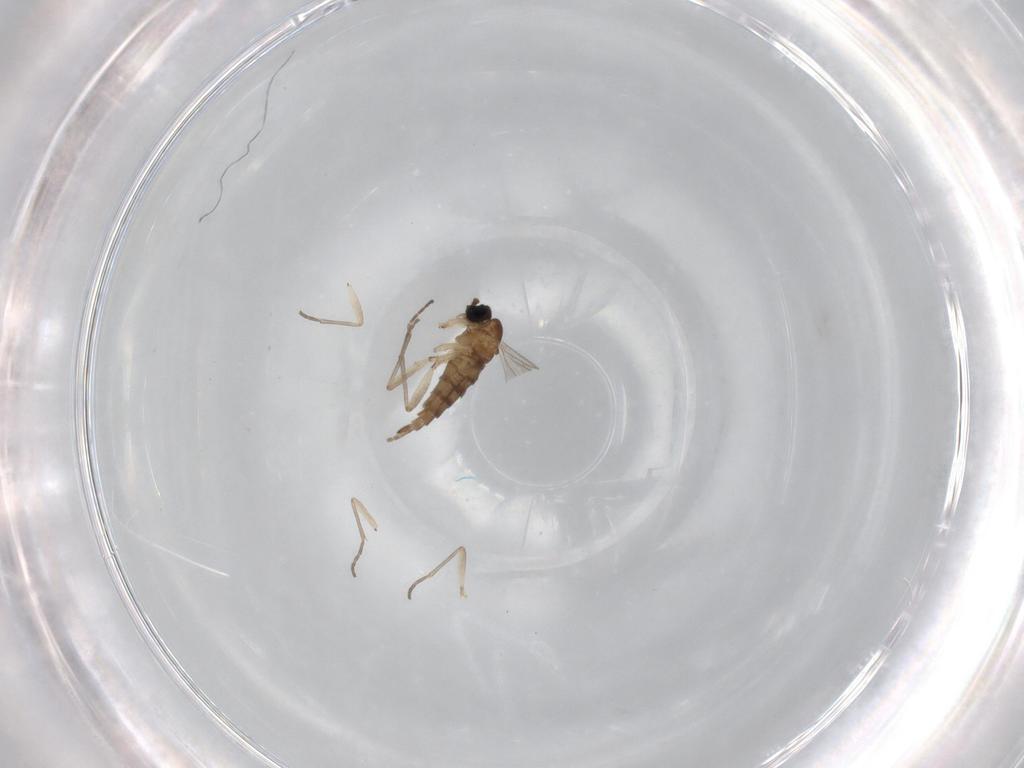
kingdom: Animalia
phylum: Arthropoda
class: Insecta
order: Diptera
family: Sciaridae
